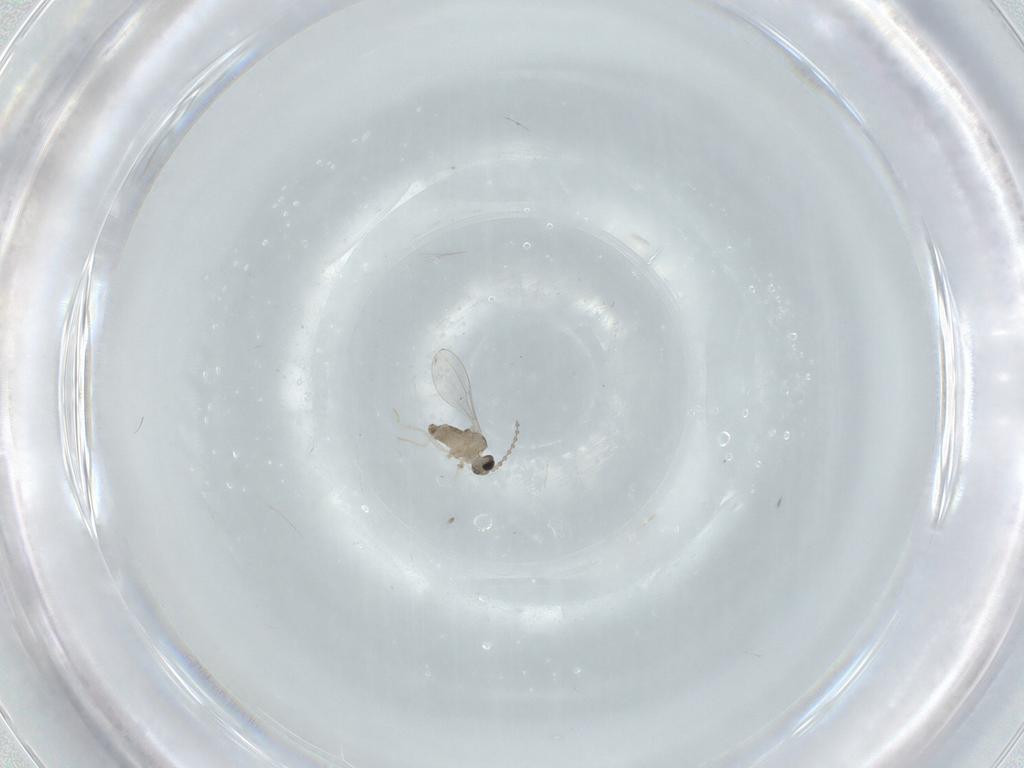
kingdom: Animalia
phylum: Arthropoda
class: Insecta
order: Diptera
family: Cecidomyiidae
